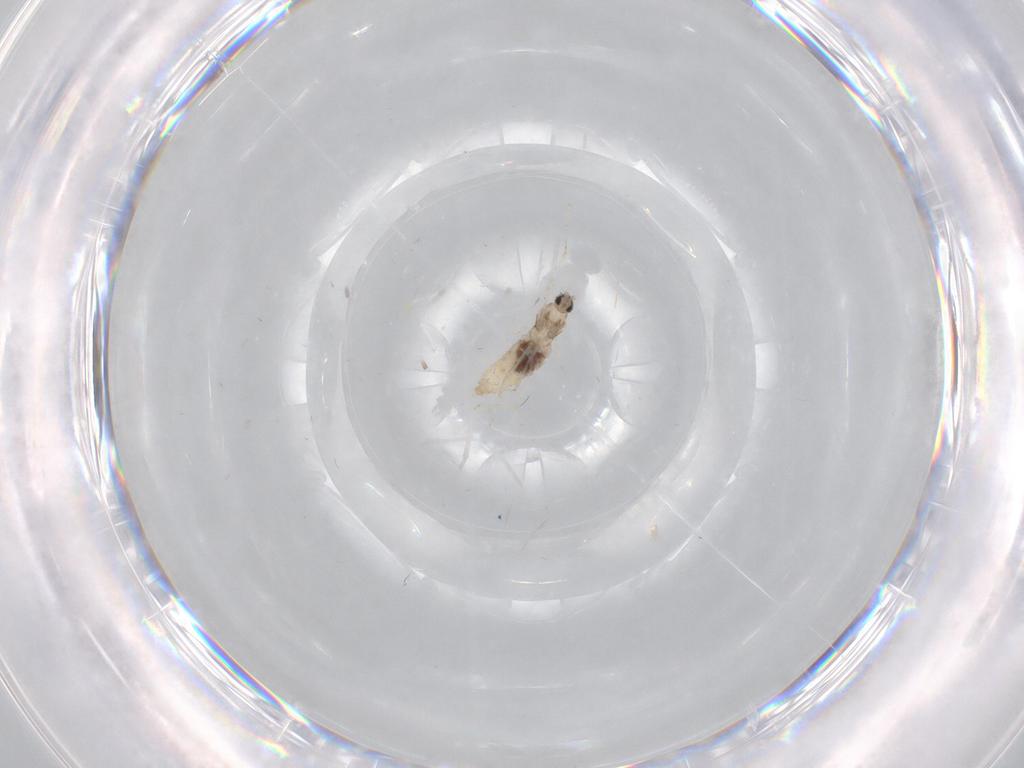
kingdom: Animalia
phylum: Arthropoda
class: Insecta
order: Diptera
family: Cecidomyiidae
